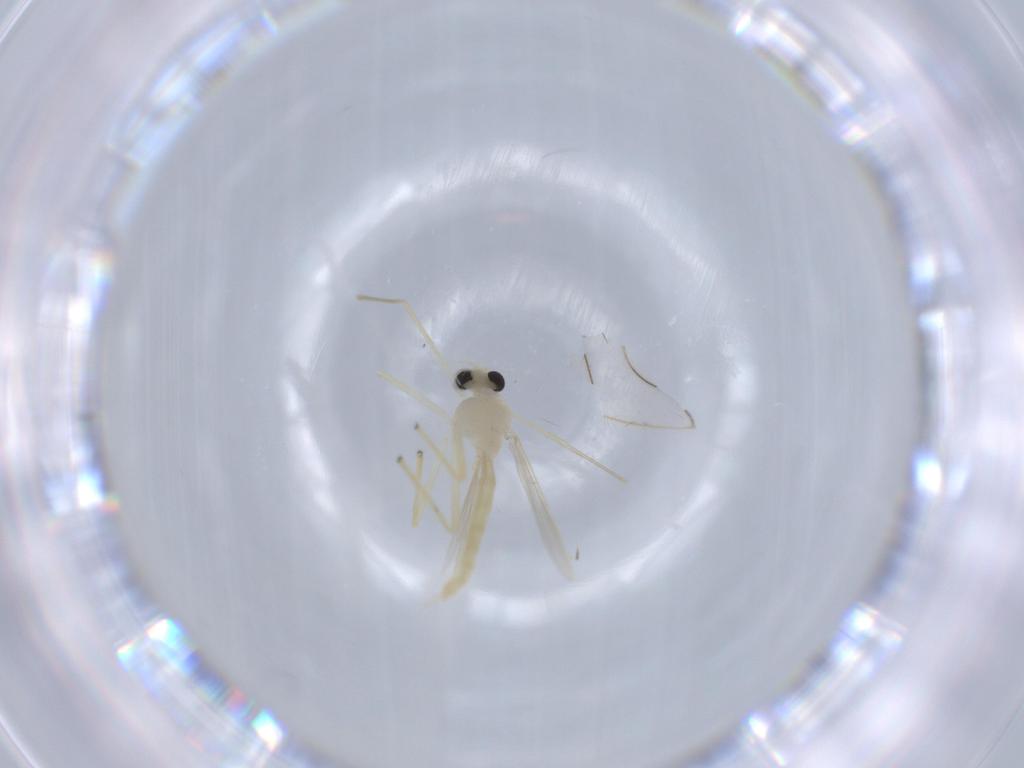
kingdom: Animalia
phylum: Arthropoda
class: Insecta
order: Diptera
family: Chironomidae
